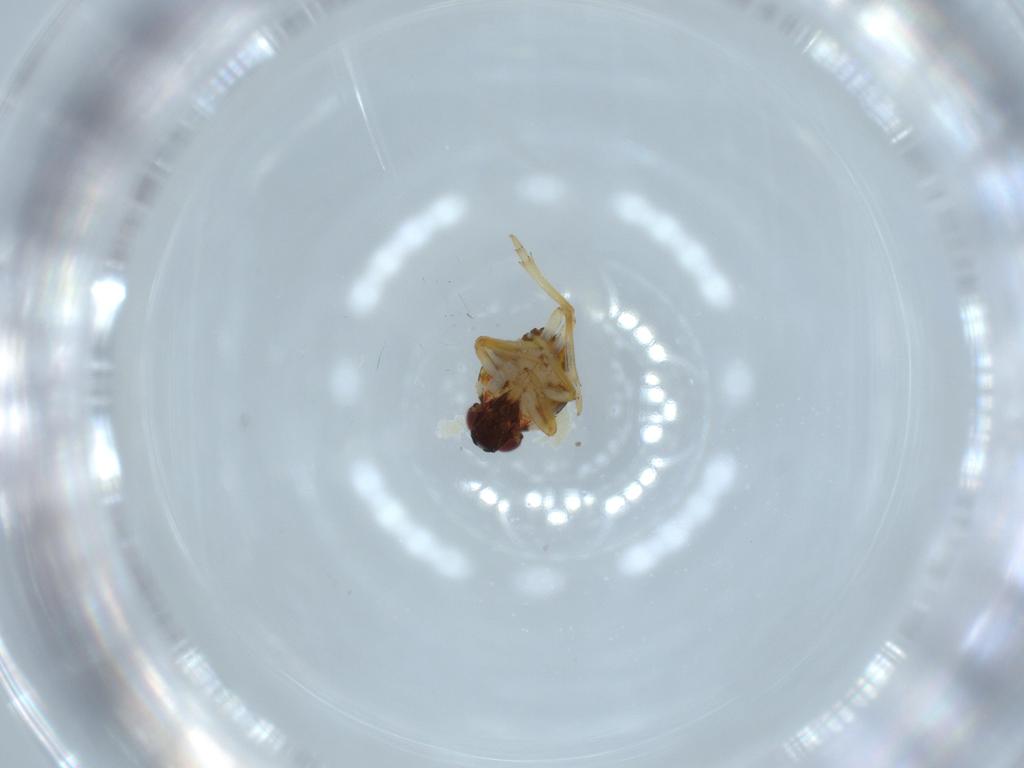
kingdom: Animalia
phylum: Arthropoda
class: Insecta
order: Hemiptera
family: Issidae
